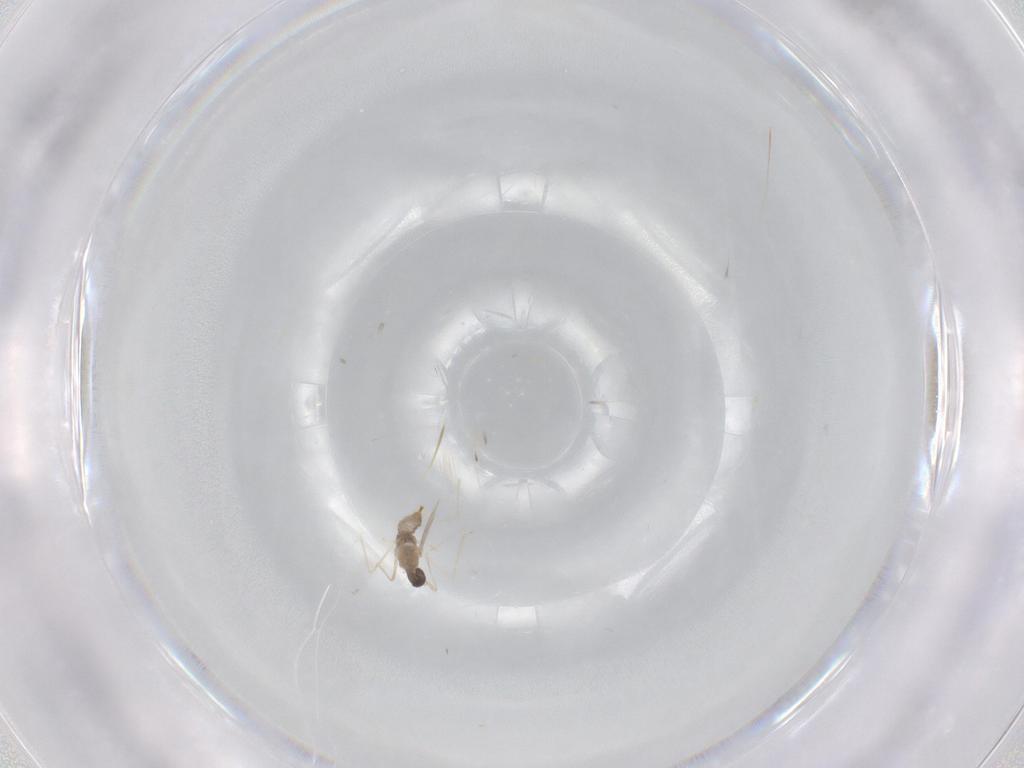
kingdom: Animalia
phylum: Arthropoda
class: Insecta
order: Diptera
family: Cecidomyiidae
